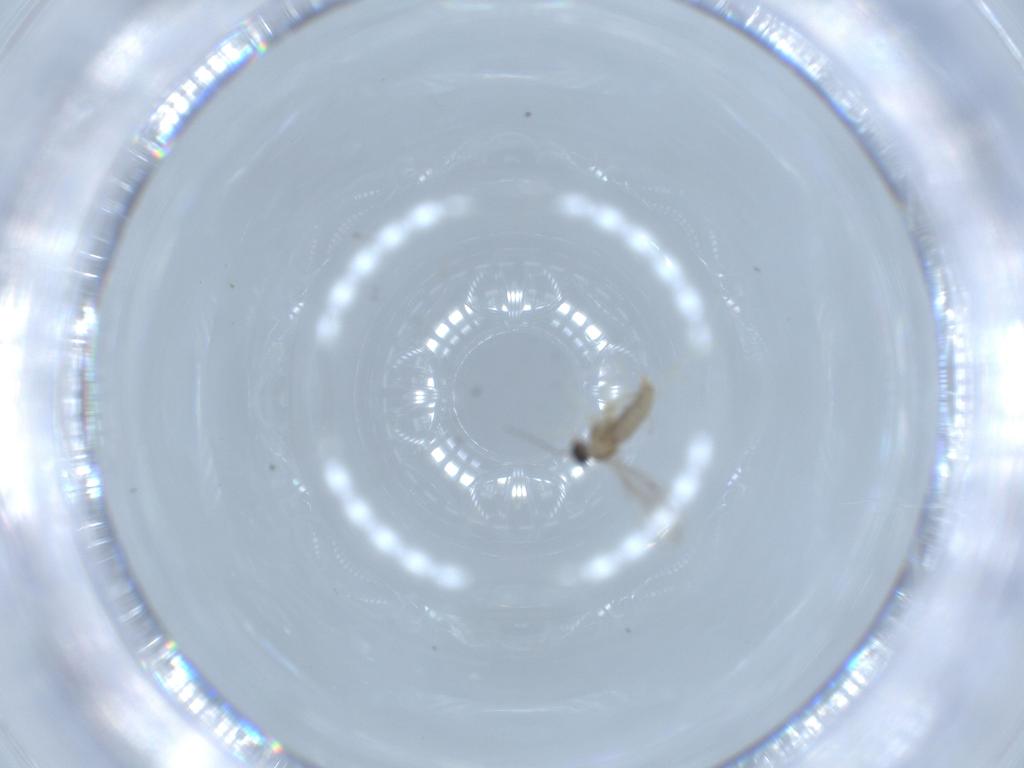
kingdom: Animalia
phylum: Arthropoda
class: Insecta
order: Diptera
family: Cecidomyiidae
